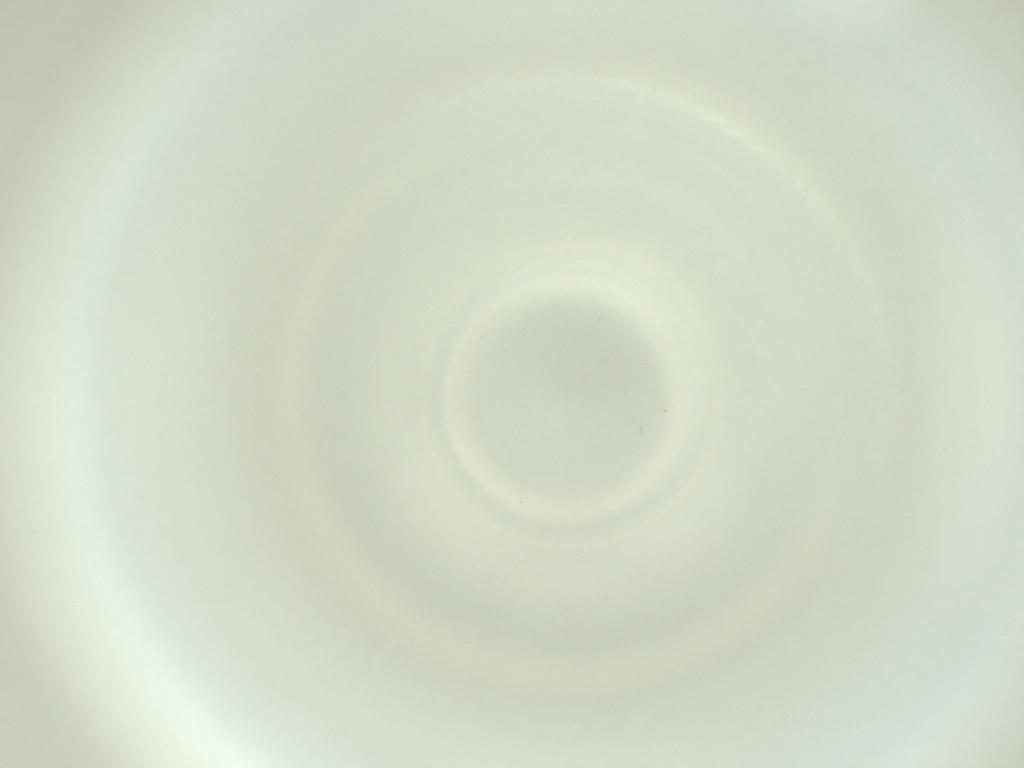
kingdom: Animalia
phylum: Arthropoda
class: Insecta
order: Diptera
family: Cecidomyiidae
